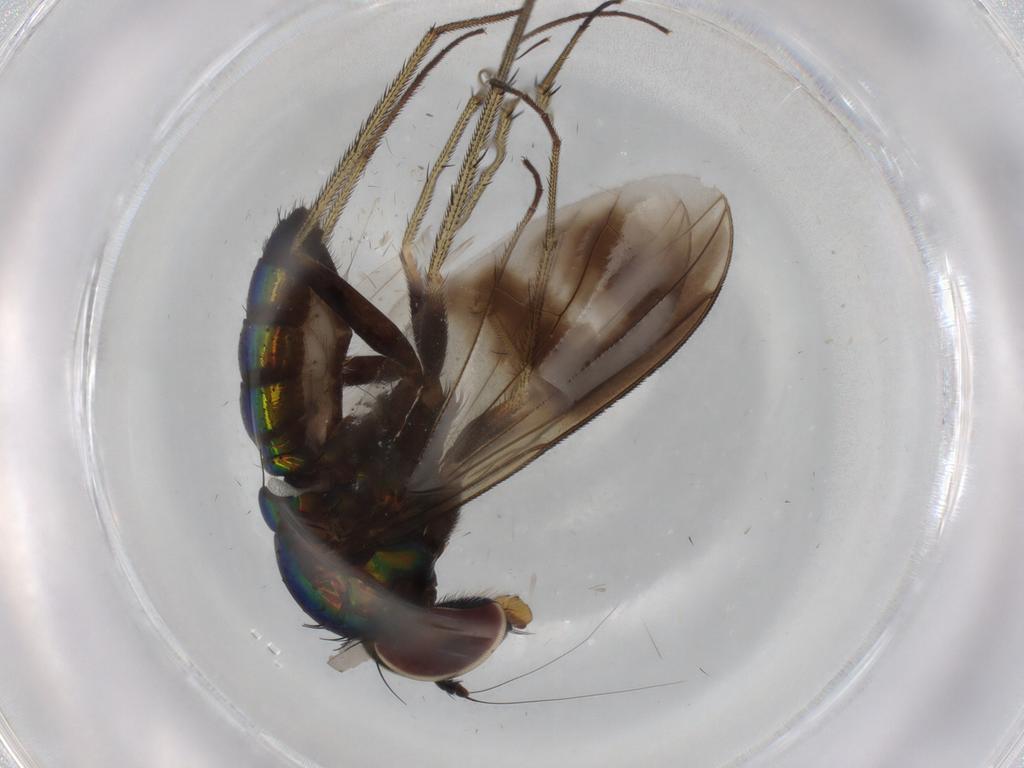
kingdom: Animalia
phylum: Arthropoda
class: Insecta
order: Diptera
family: Dolichopodidae
